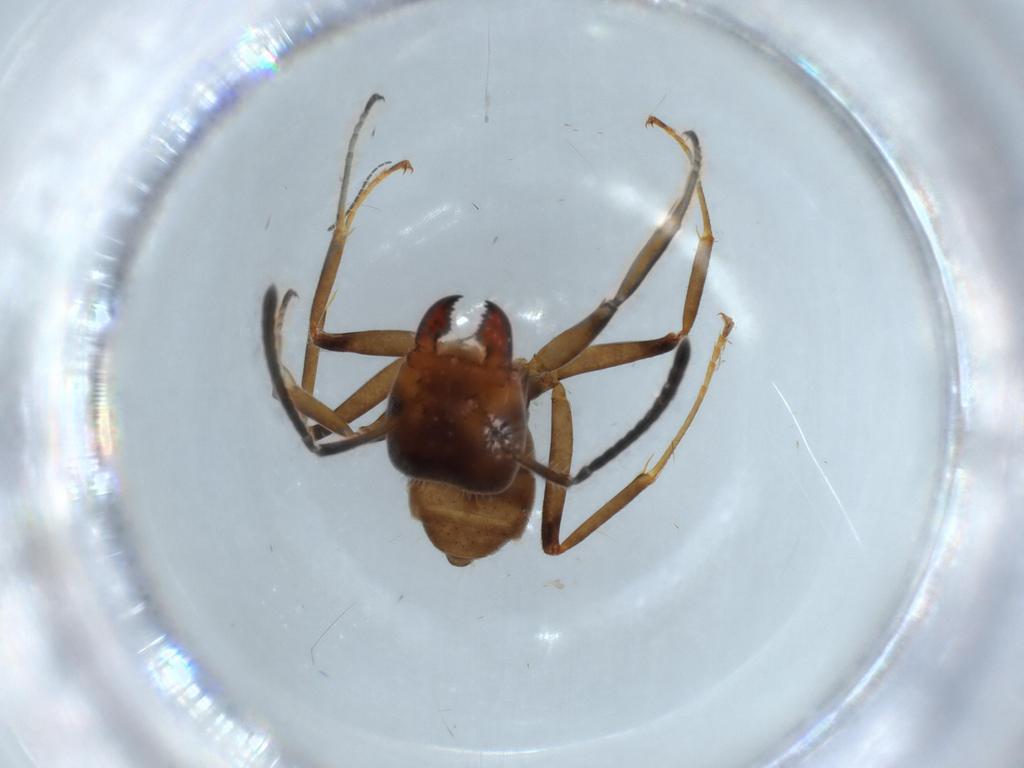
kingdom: Animalia
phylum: Arthropoda
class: Insecta
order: Hymenoptera
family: Formicidae
